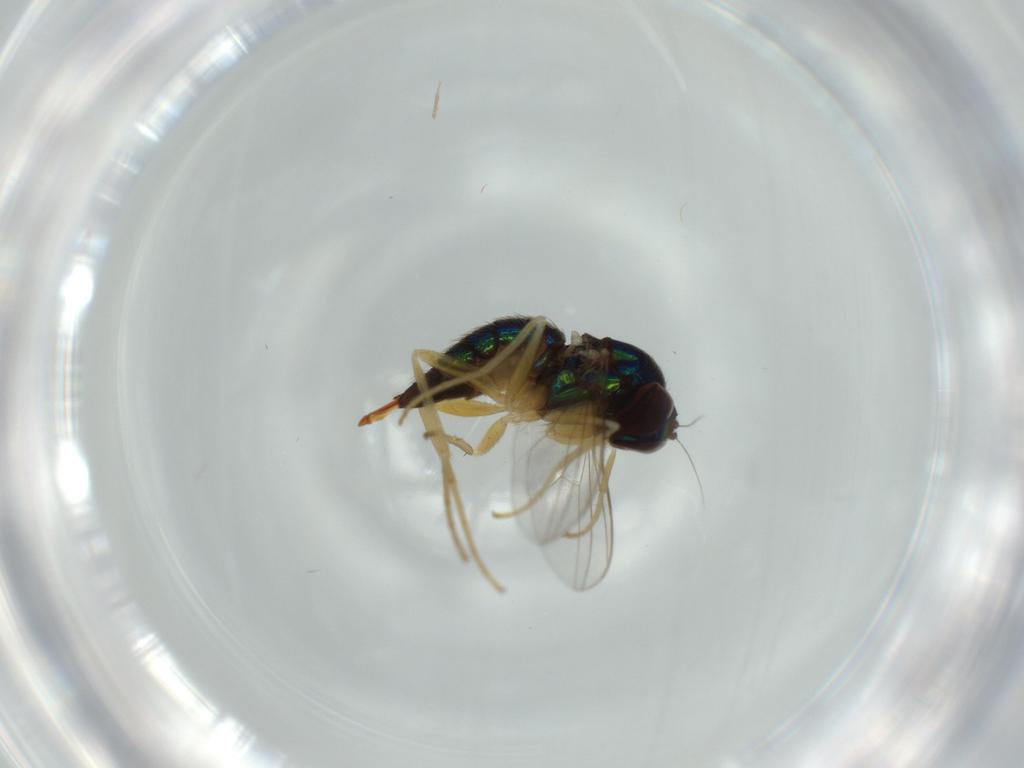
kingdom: Animalia
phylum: Arthropoda
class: Insecta
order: Diptera
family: Dolichopodidae
